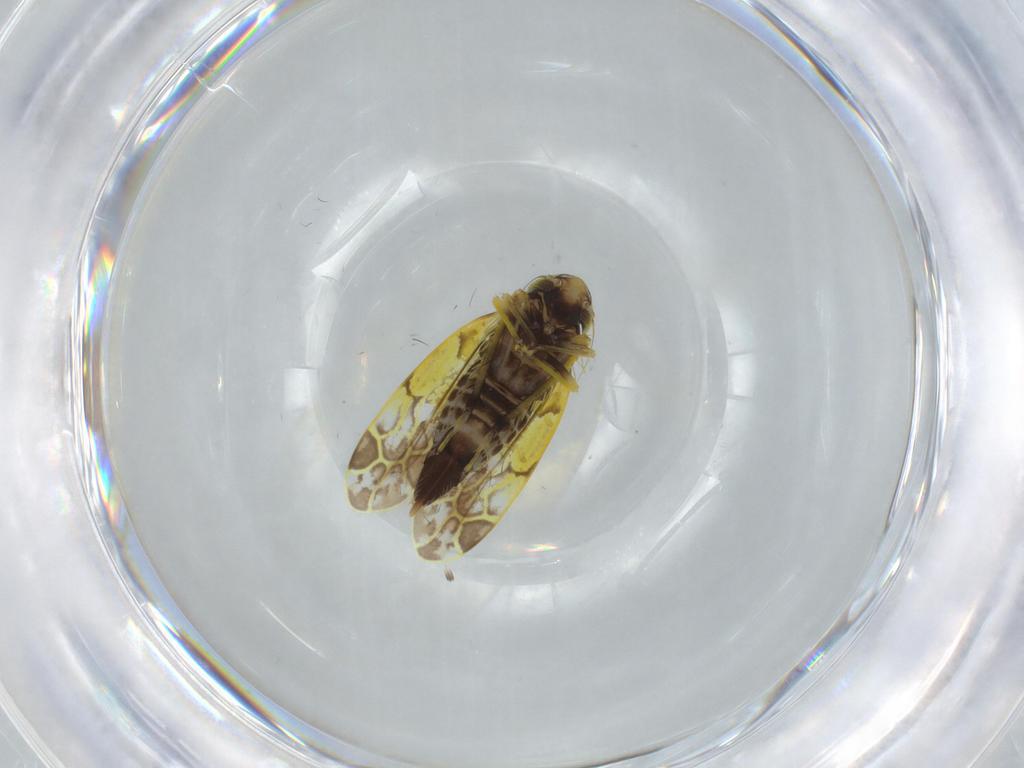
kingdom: Animalia
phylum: Arthropoda
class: Insecta
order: Hemiptera
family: Cicadellidae
